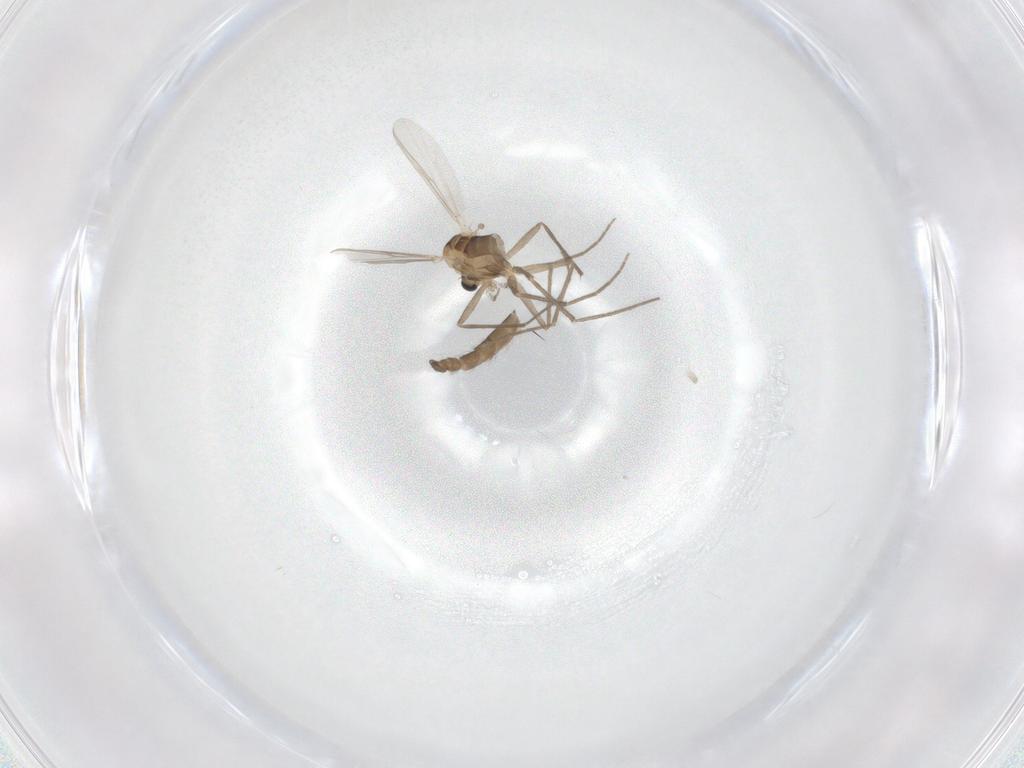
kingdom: Animalia
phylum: Arthropoda
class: Insecta
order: Diptera
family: Chironomidae
